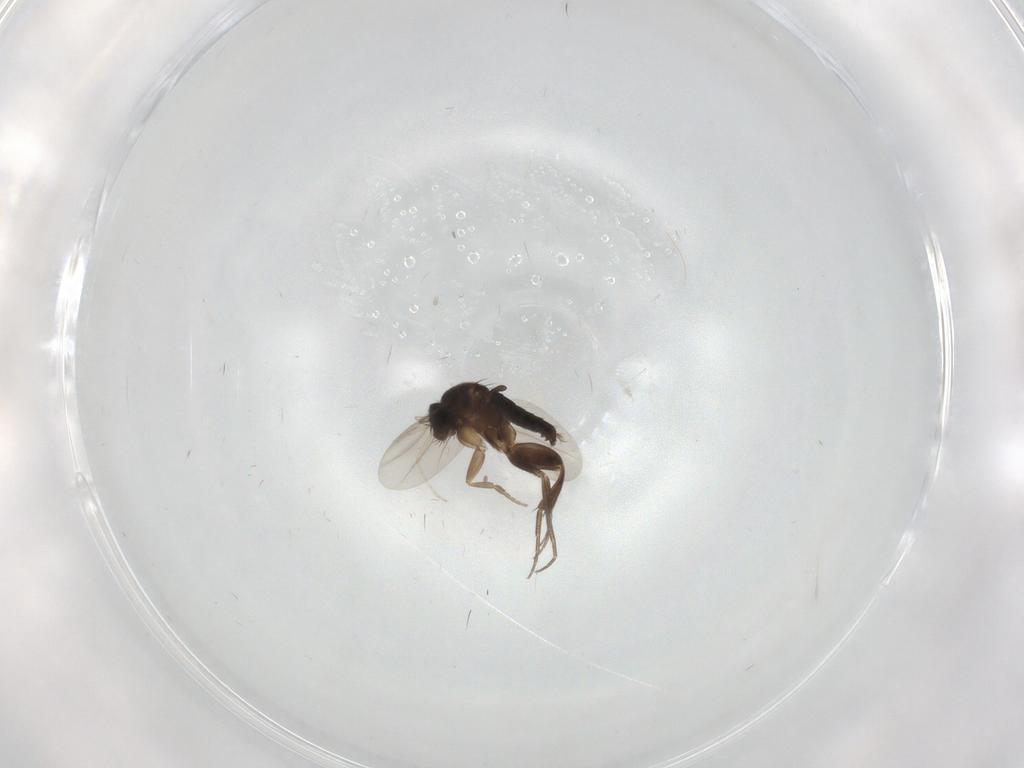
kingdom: Animalia
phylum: Arthropoda
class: Insecta
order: Diptera
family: Phoridae
